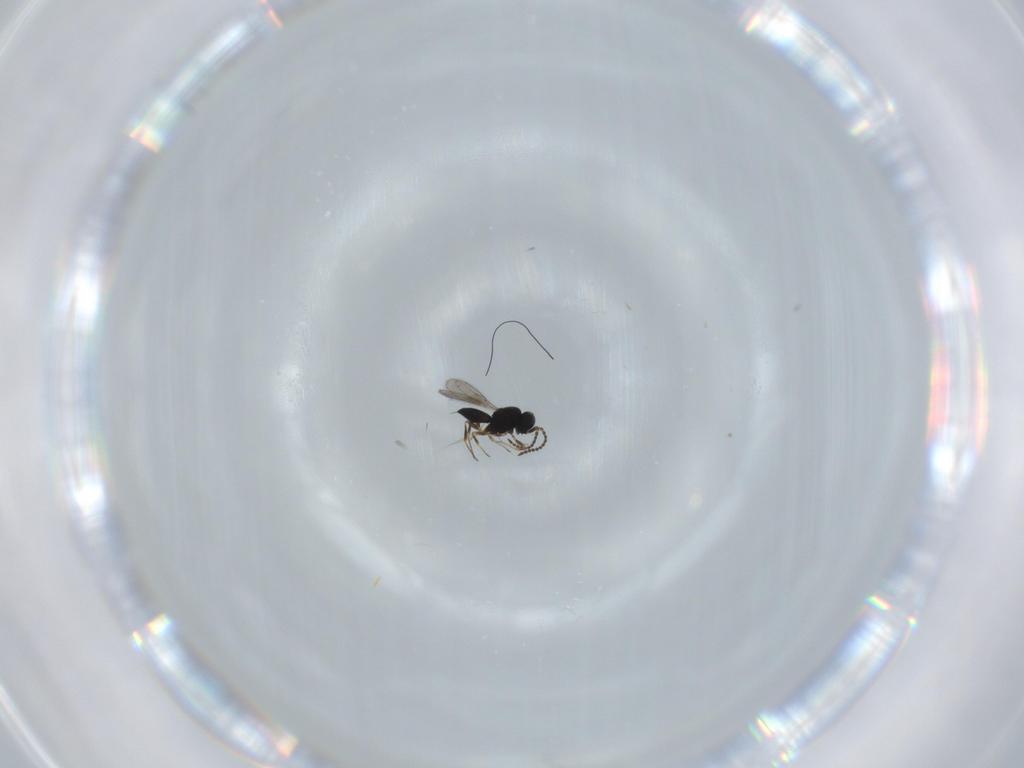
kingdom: Animalia
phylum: Arthropoda
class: Insecta
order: Hymenoptera
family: Scelionidae
